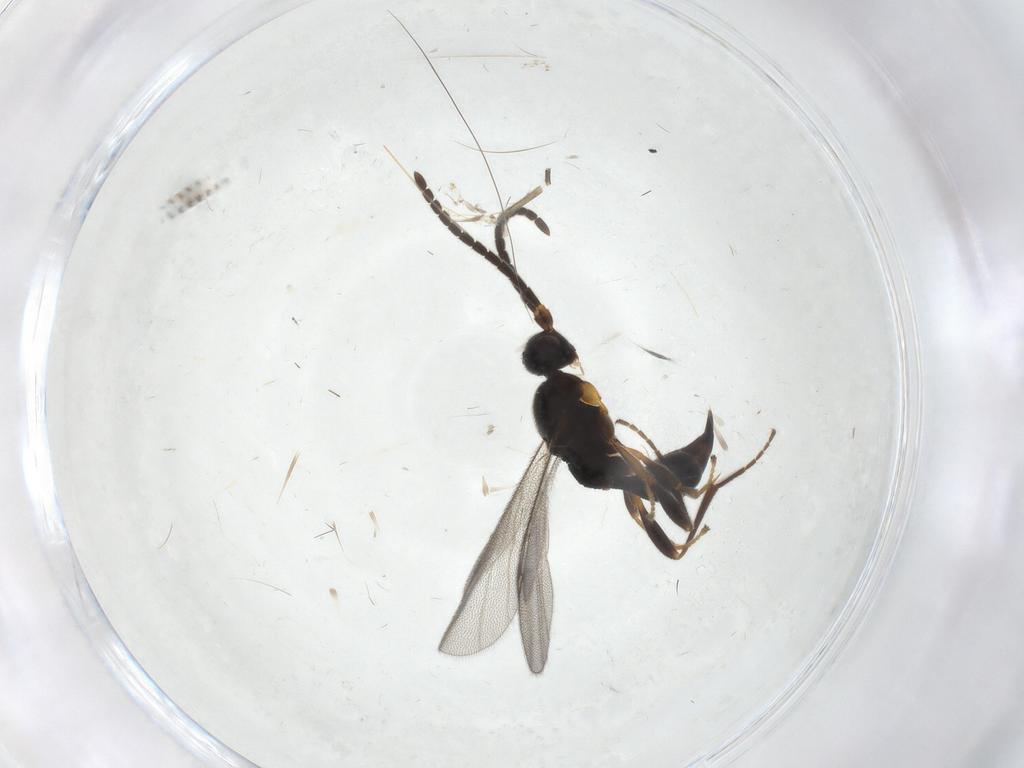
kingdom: Animalia
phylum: Arthropoda
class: Insecta
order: Hymenoptera
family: Proctotrupidae
